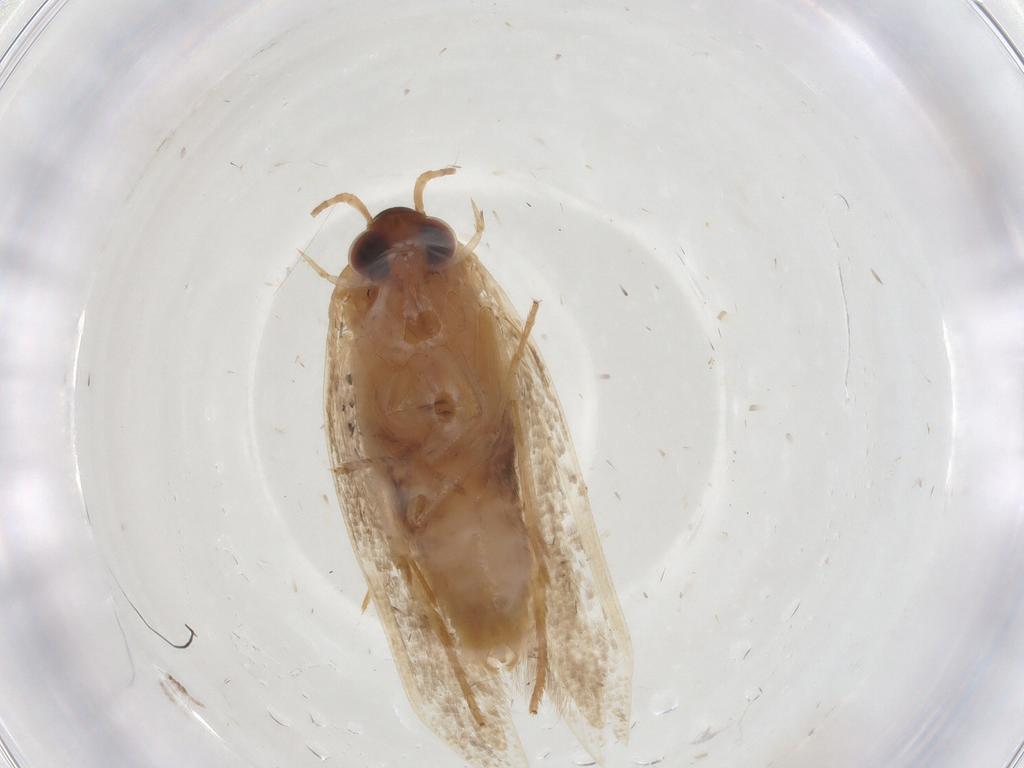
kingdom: Animalia
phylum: Arthropoda
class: Insecta
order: Lepidoptera
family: Blastobasidae
